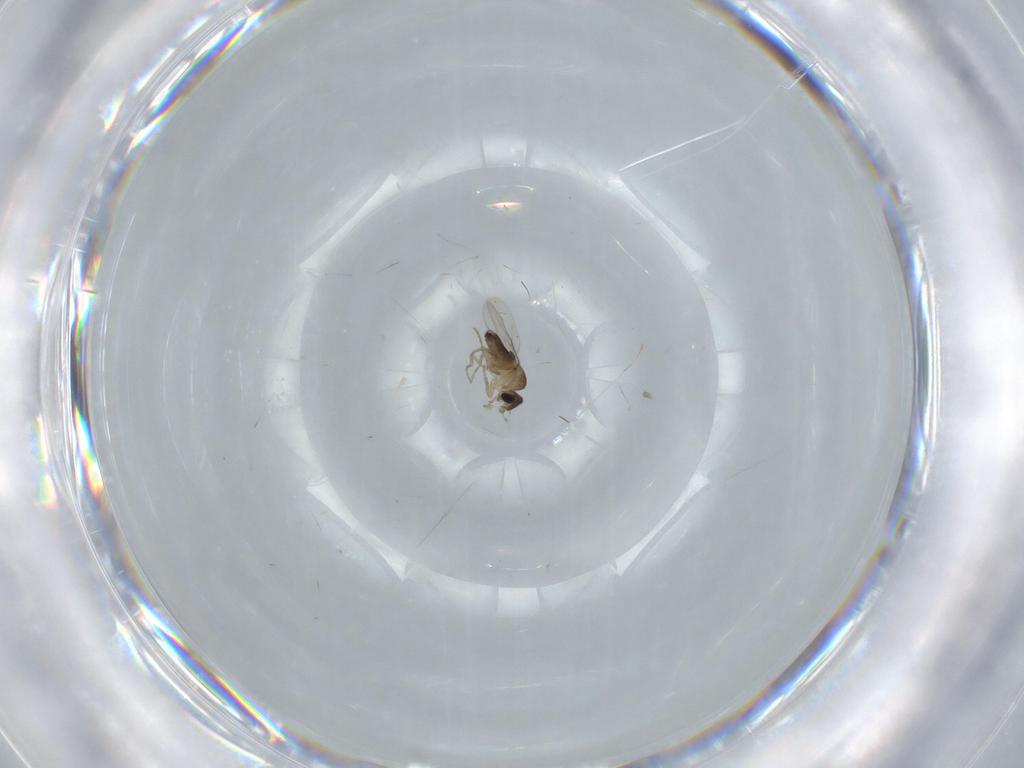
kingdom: Animalia
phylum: Arthropoda
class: Insecta
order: Diptera
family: Phoridae
